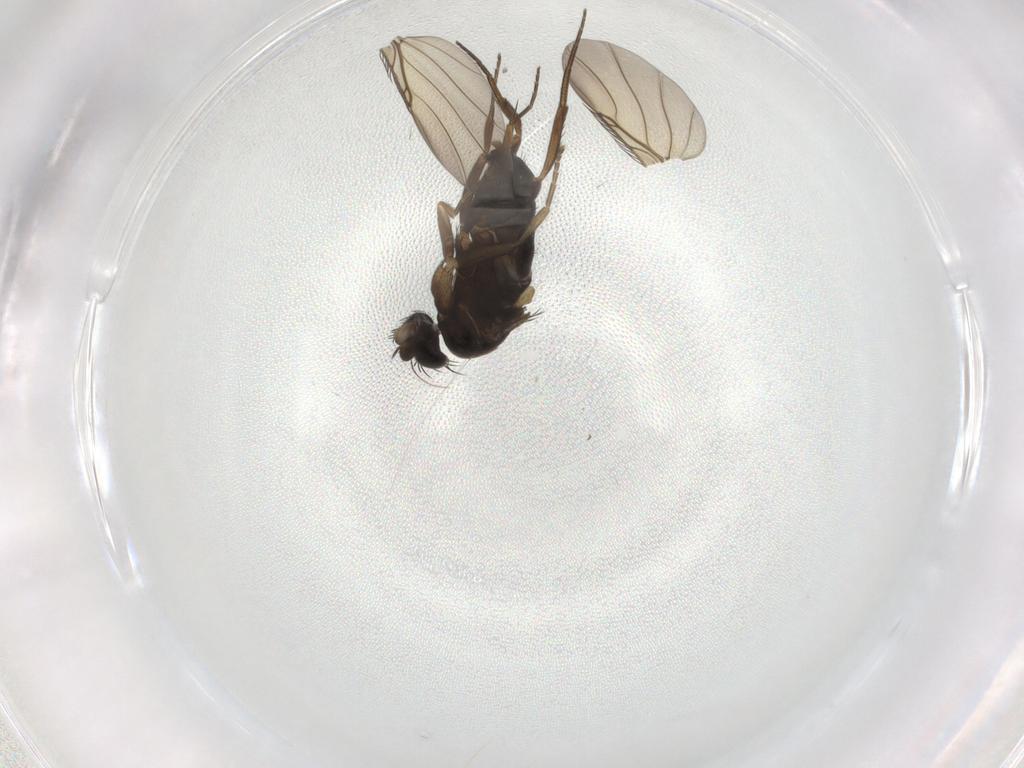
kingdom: Animalia
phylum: Arthropoda
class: Insecta
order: Diptera
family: Phoridae
